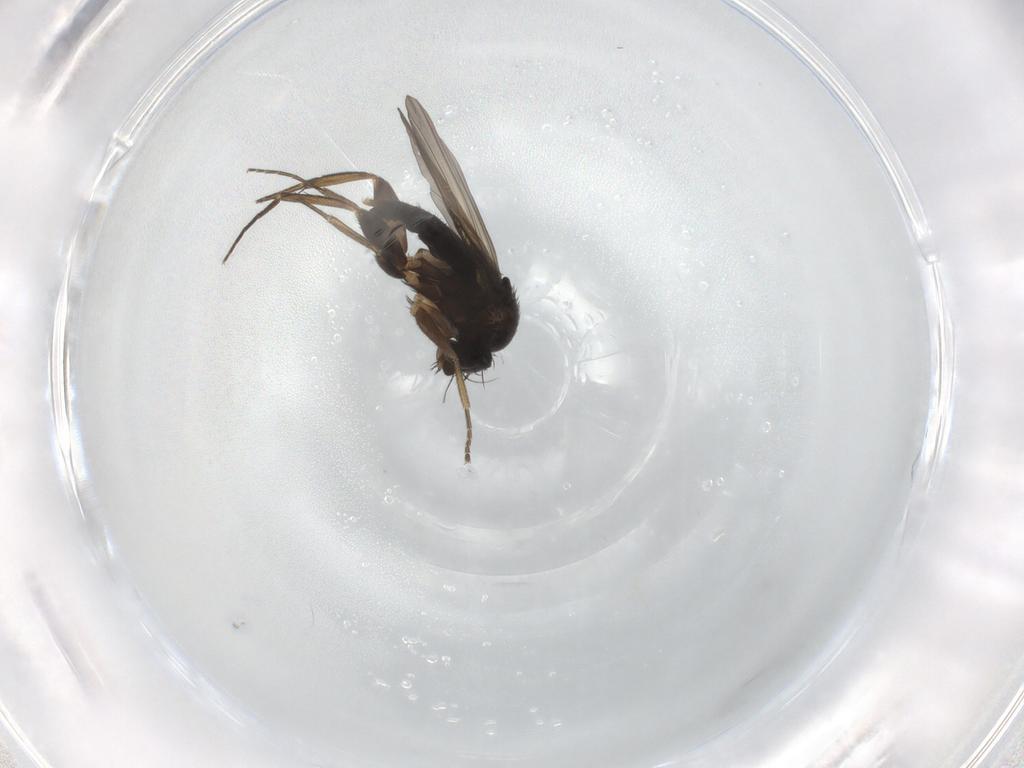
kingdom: Animalia
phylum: Arthropoda
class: Insecta
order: Diptera
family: Phoridae
